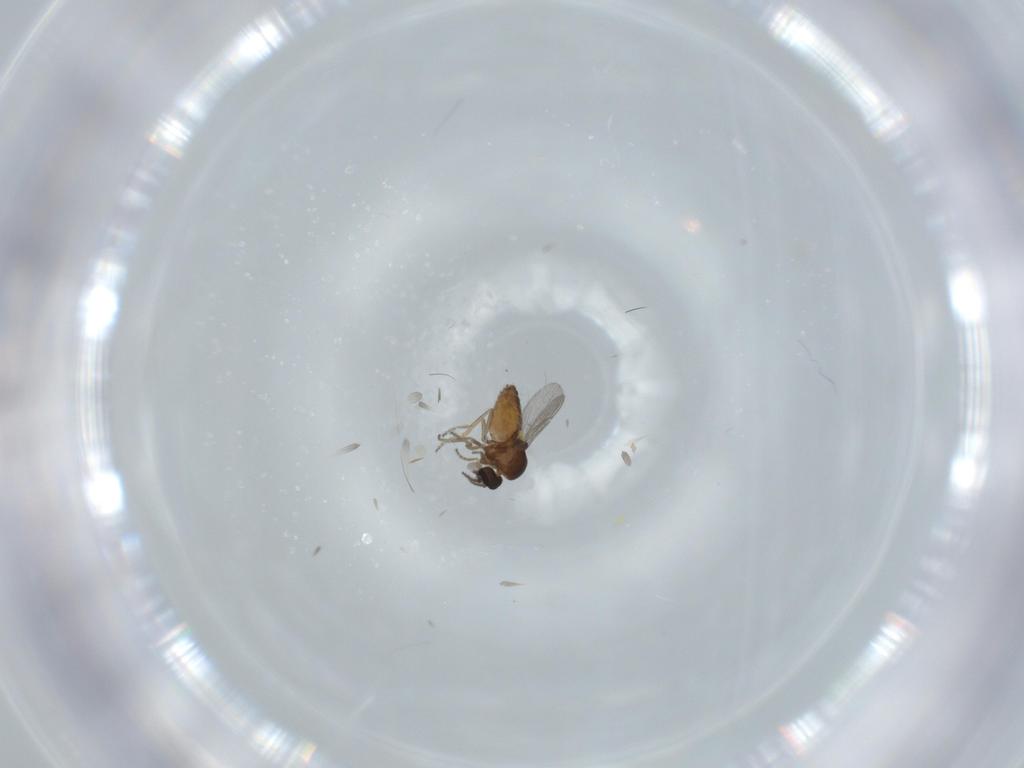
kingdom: Animalia
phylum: Arthropoda
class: Insecta
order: Diptera
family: Ceratopogonidae
